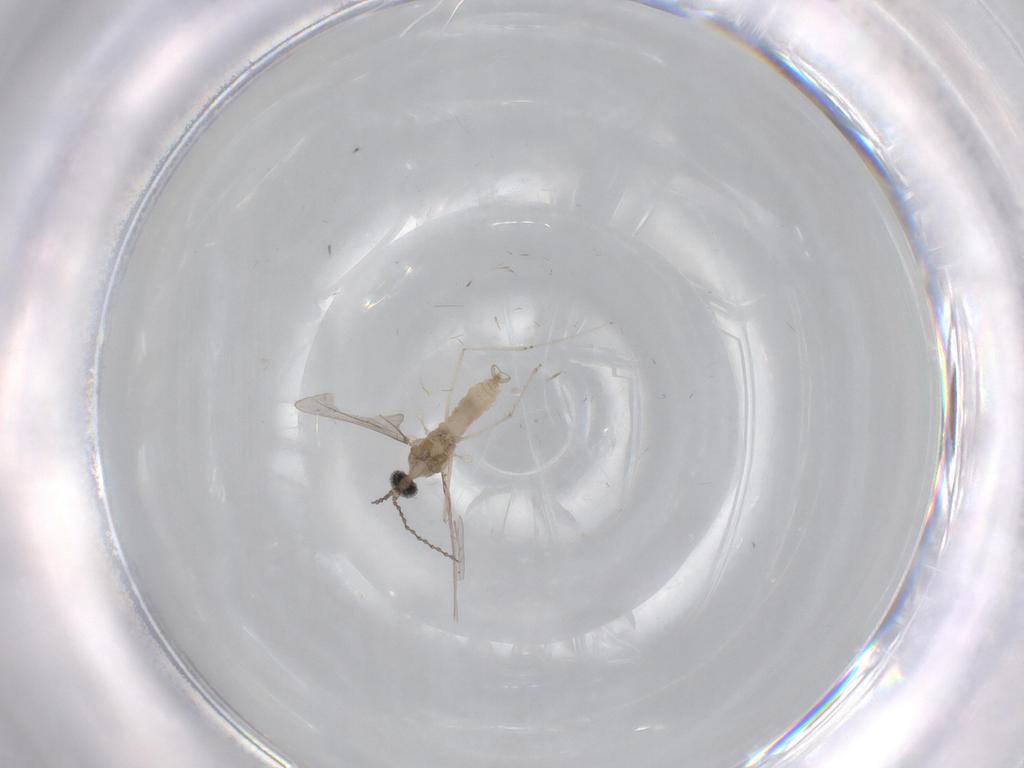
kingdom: Animalia
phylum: Arthropoda
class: Insecta
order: Diptera
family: Cecidomyiidae
